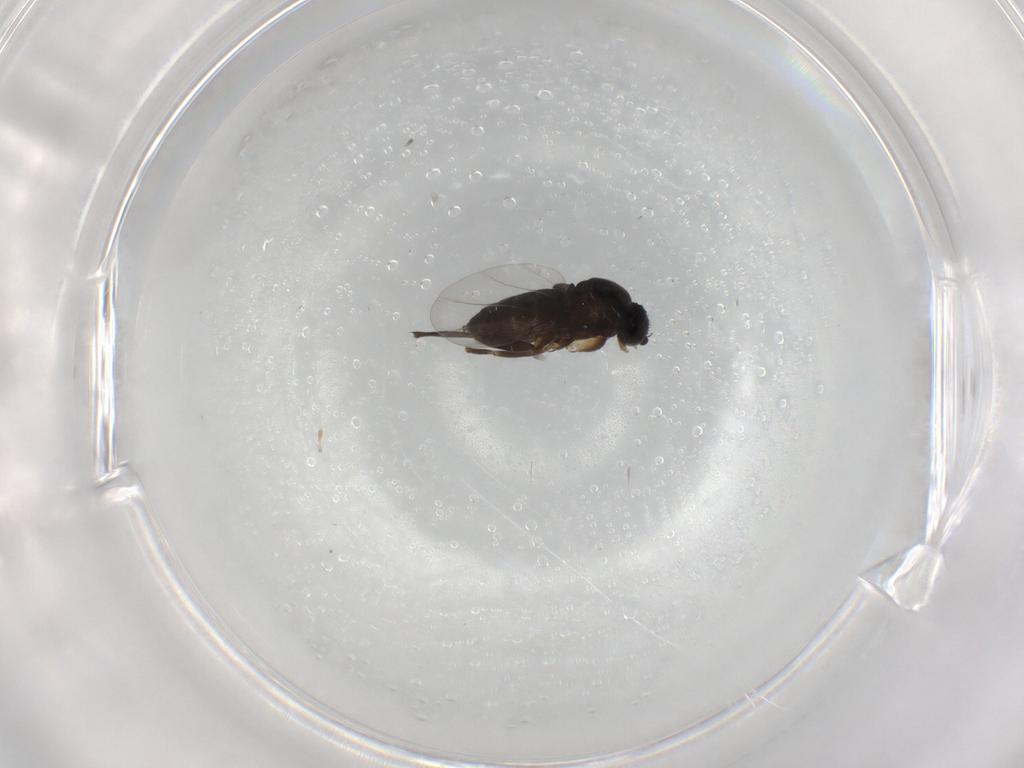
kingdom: Animalia
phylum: Arthropoda
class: Insecta
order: Diptera
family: Phoridae
